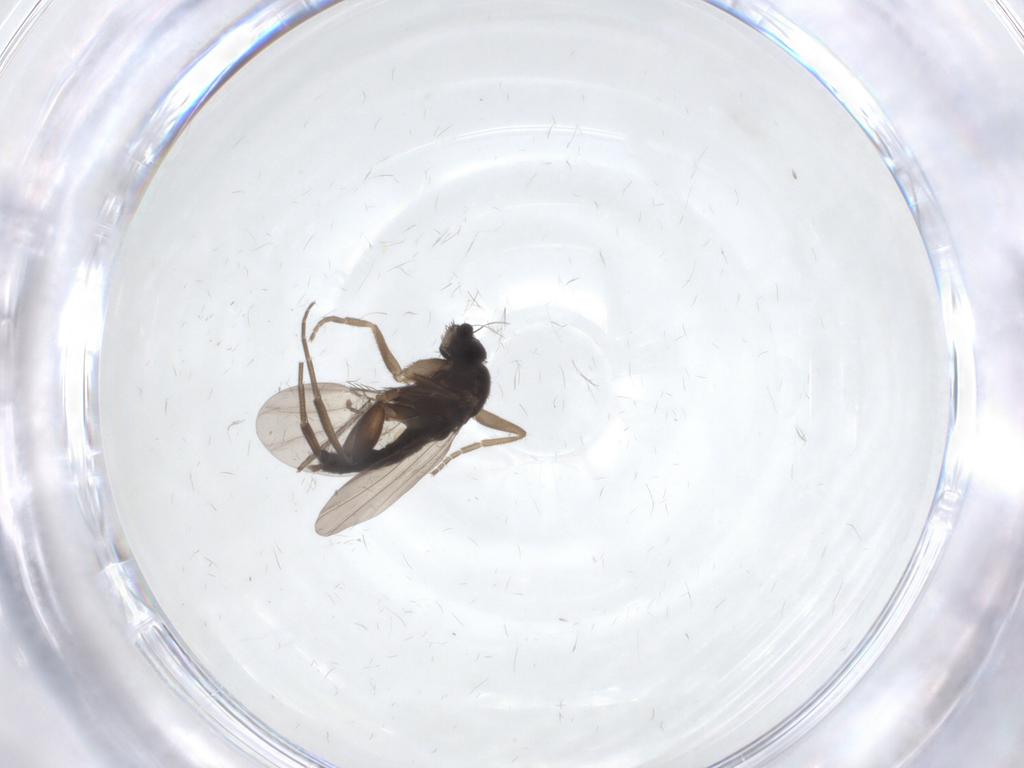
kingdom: Animalia
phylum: Arthropoda
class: Insecta
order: Diptera
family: Phoridae
